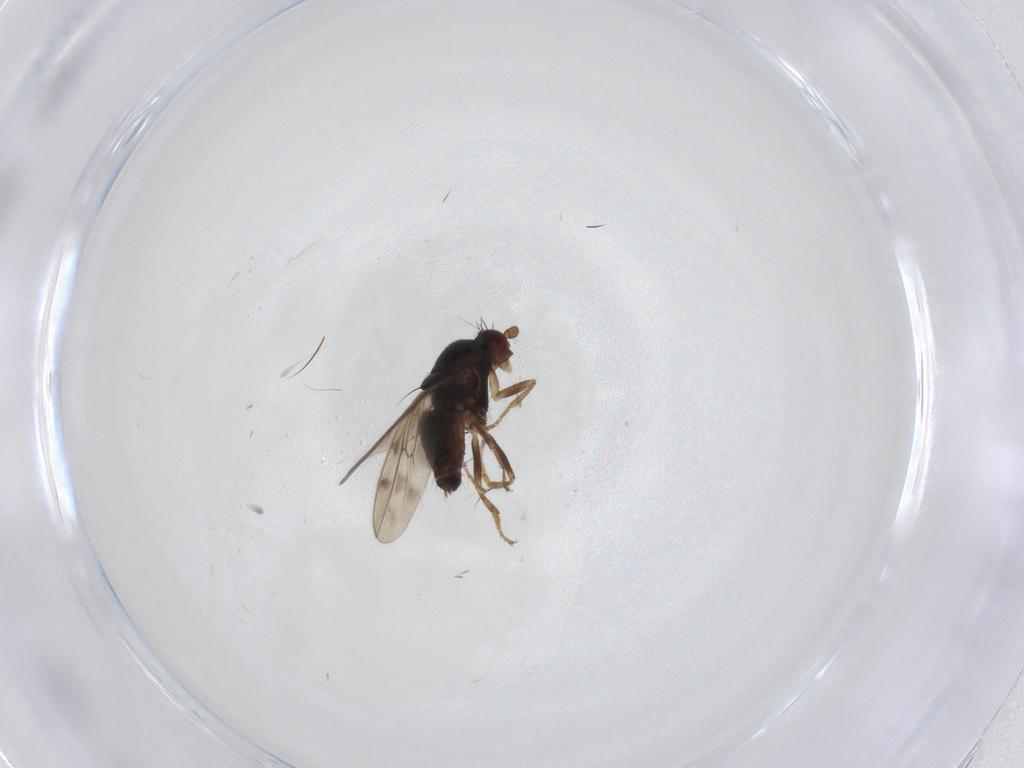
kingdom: Animalia
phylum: Arthropoda
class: Insecta
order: Diptera
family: Sphaeroceridae
